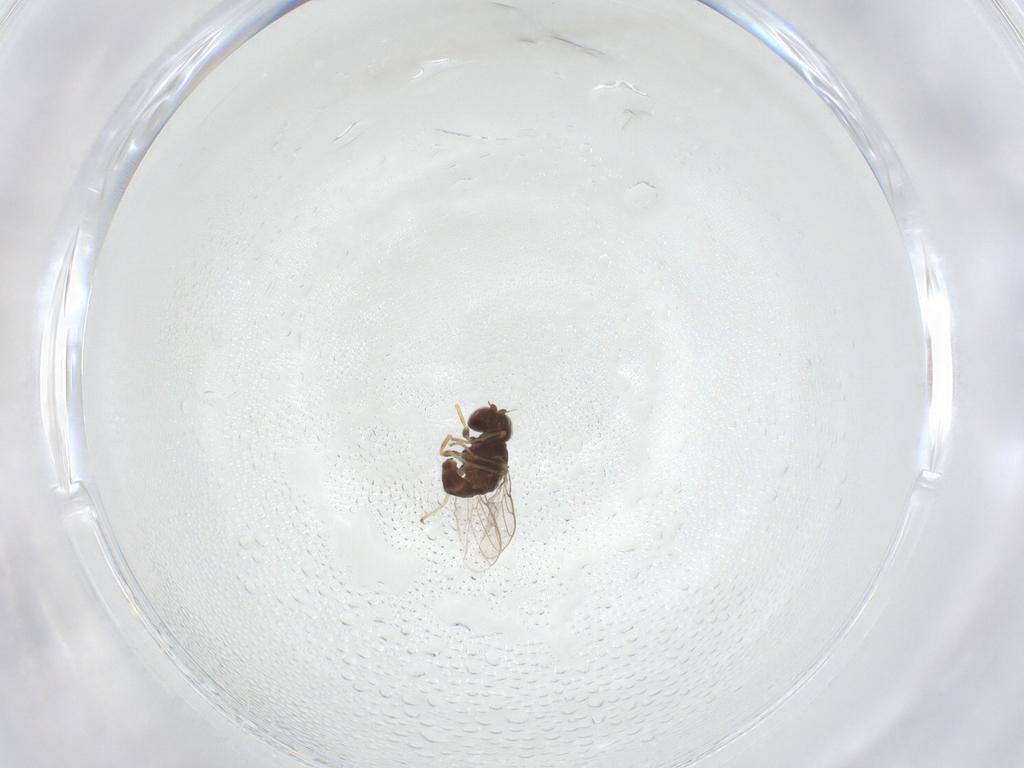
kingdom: Animalia
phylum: Arthropoda
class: Insecta
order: Diptera
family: Chloropidae
